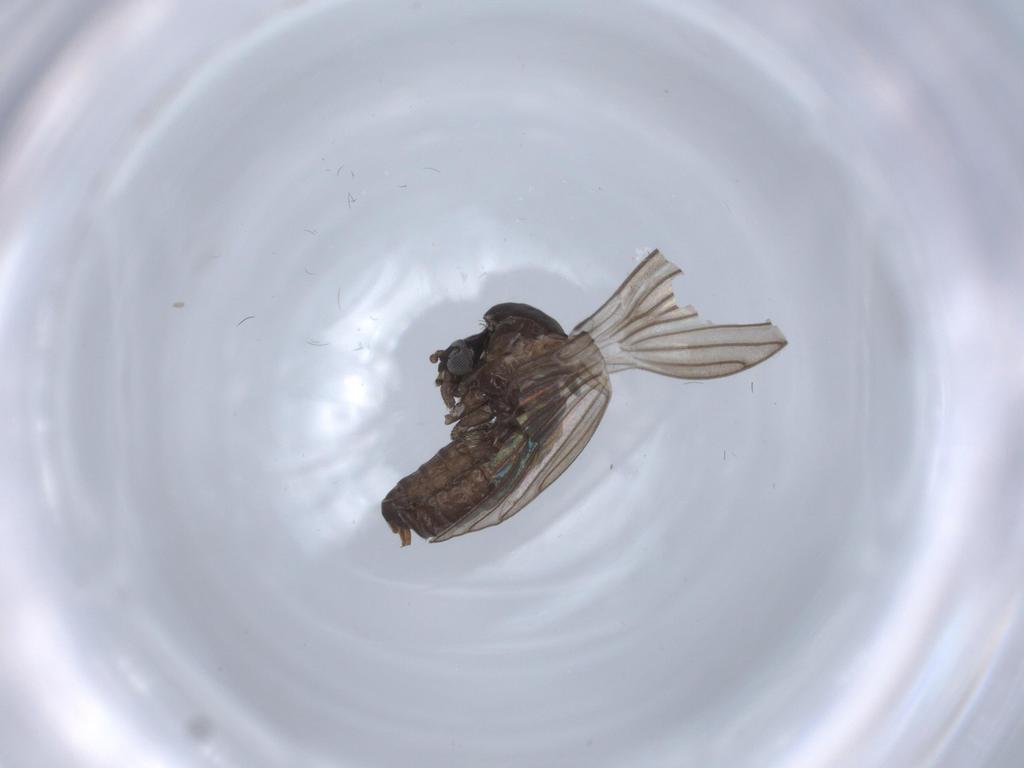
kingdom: Animalia
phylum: Arthropoda
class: Insecta
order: Diptera
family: Psychodidae
